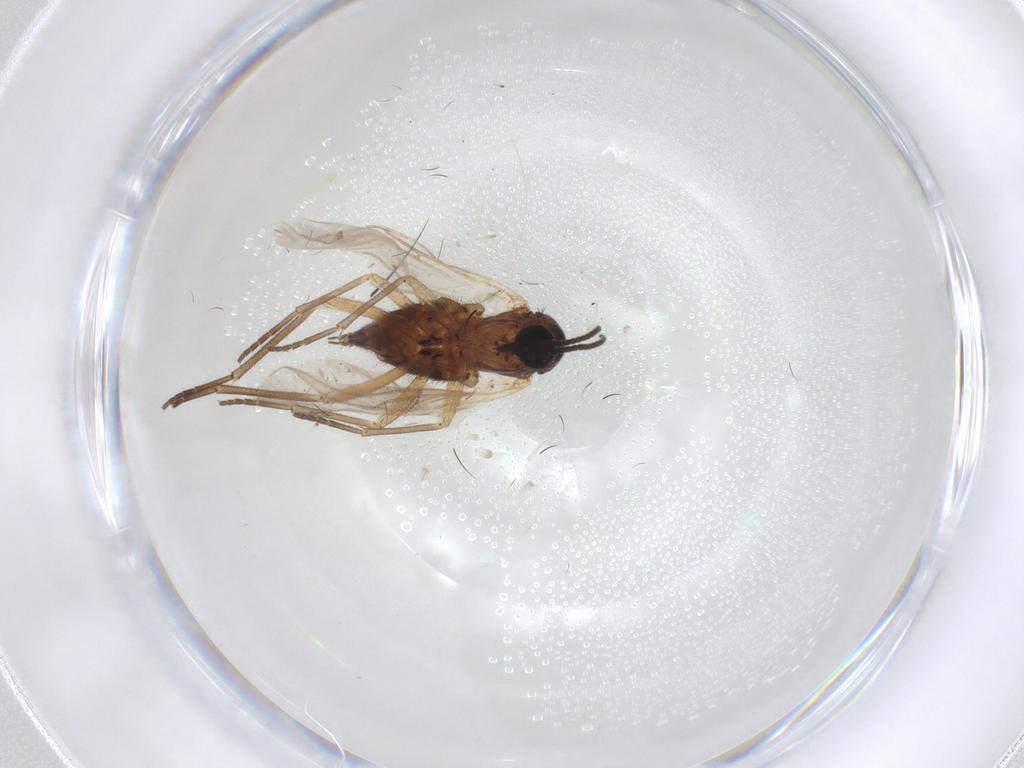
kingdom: Animalia
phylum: Arthropoda
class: Insecta
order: Diptera
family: Sciaridae
